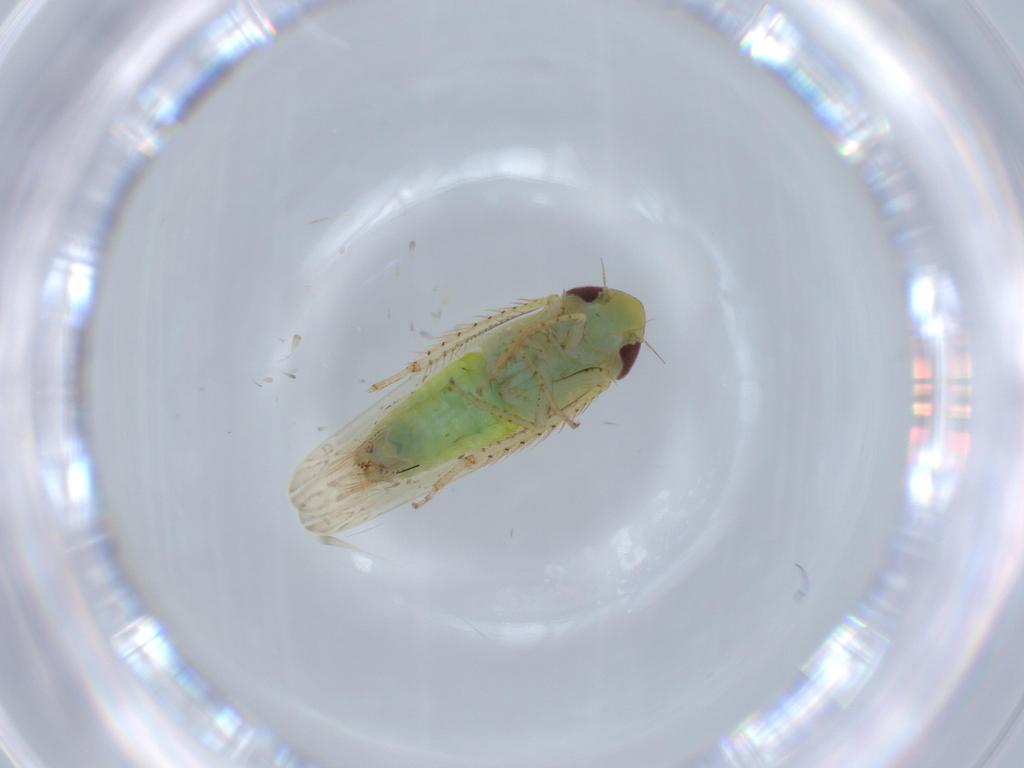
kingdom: Animalia
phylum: Arthropoda
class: Insecta
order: Hemiptera
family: Cicadellidae
